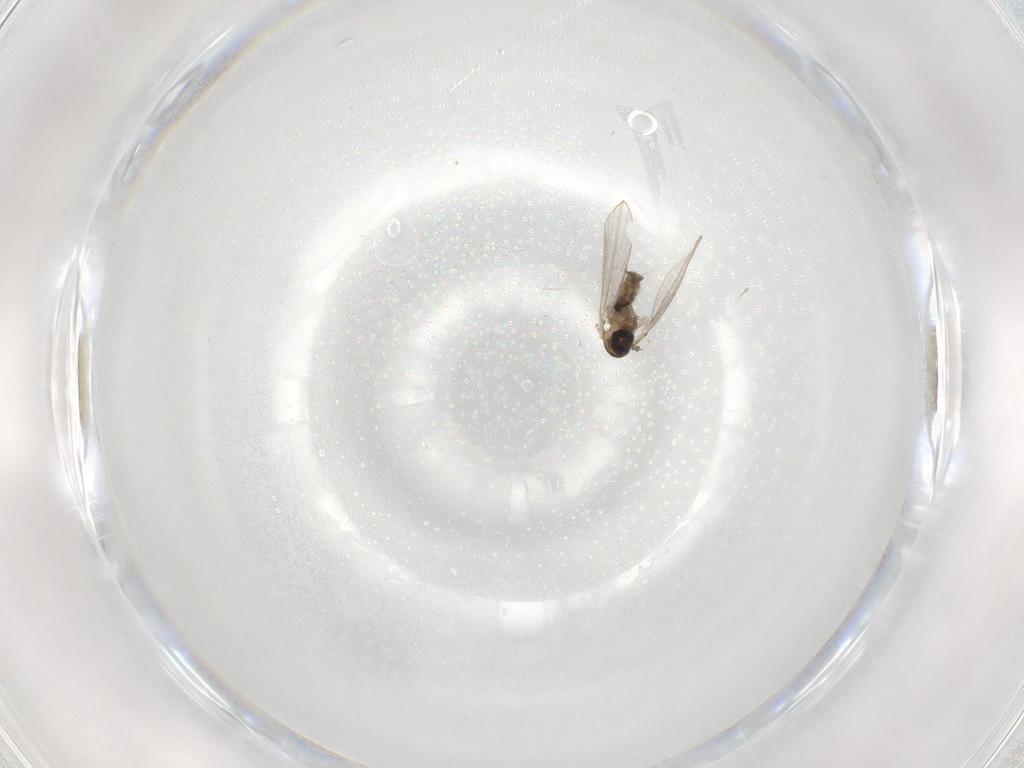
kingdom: Animalia
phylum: Arthropoda
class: Insecta
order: Diptera
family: Psychodidae
